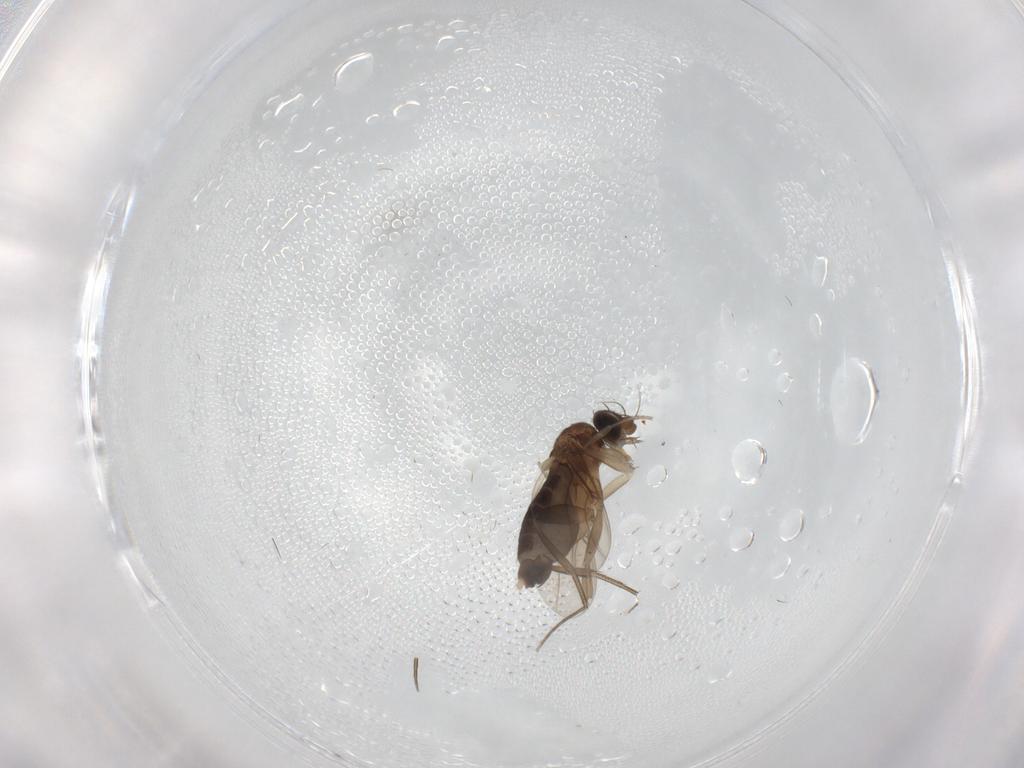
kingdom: Animalia
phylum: Arthropoda
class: Insecta
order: Diptera
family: Phoridae
